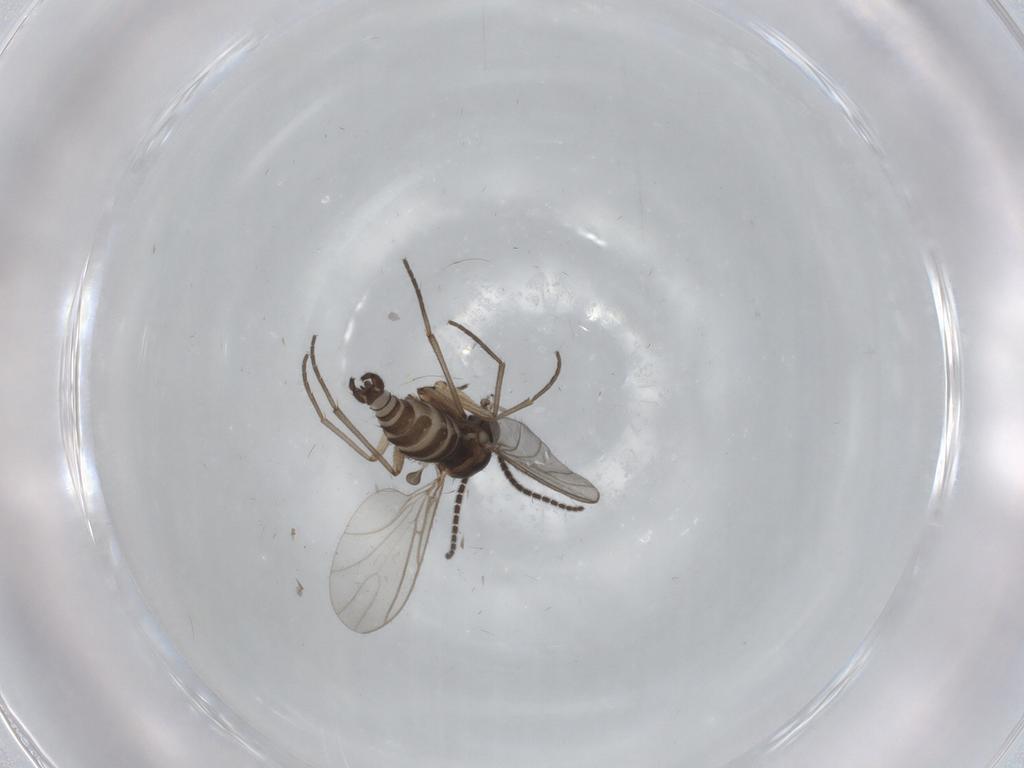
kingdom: Animalia
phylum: Arthropoda
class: Insecta
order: Diptera
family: Sciaridae
